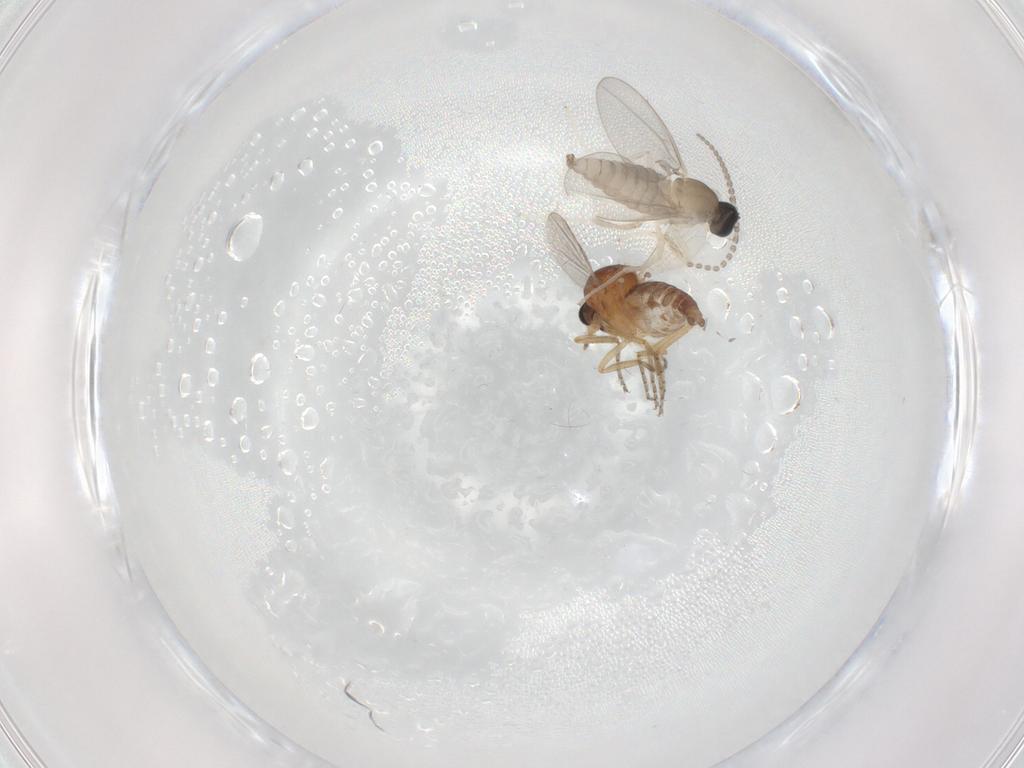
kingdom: Animalia
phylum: Arthropoda
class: Insecta
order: Diptera
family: Ceratopogonidae
